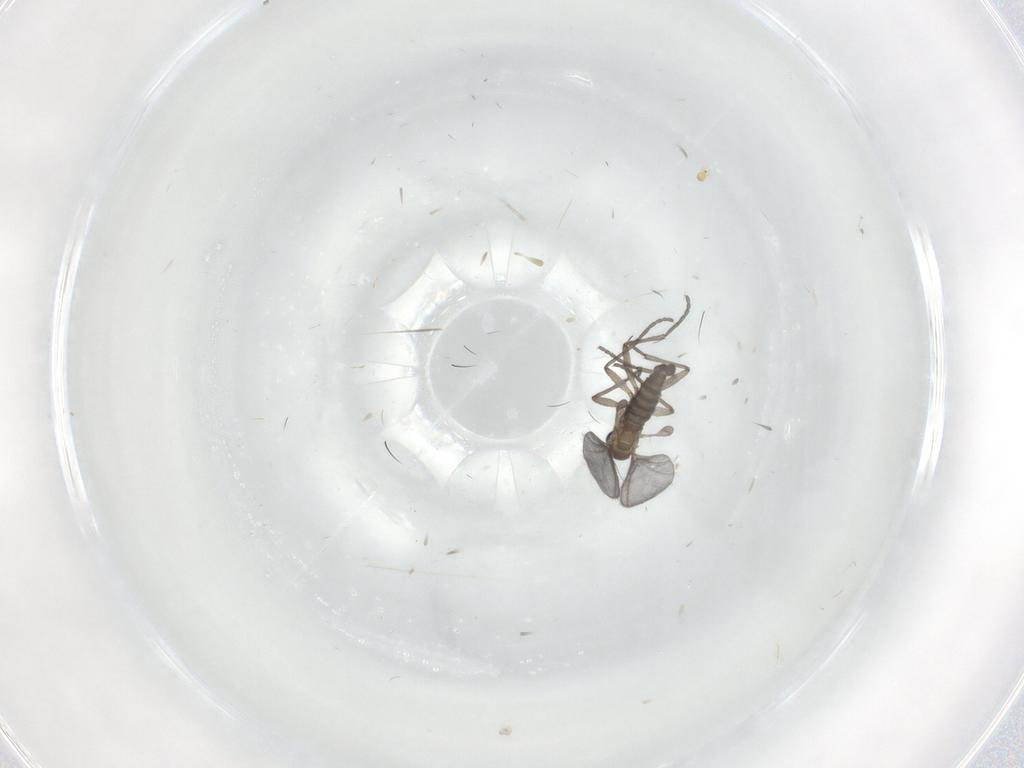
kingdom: Animalia
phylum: Arthropoda
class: Insecta
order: Diptera
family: Sciaridae
